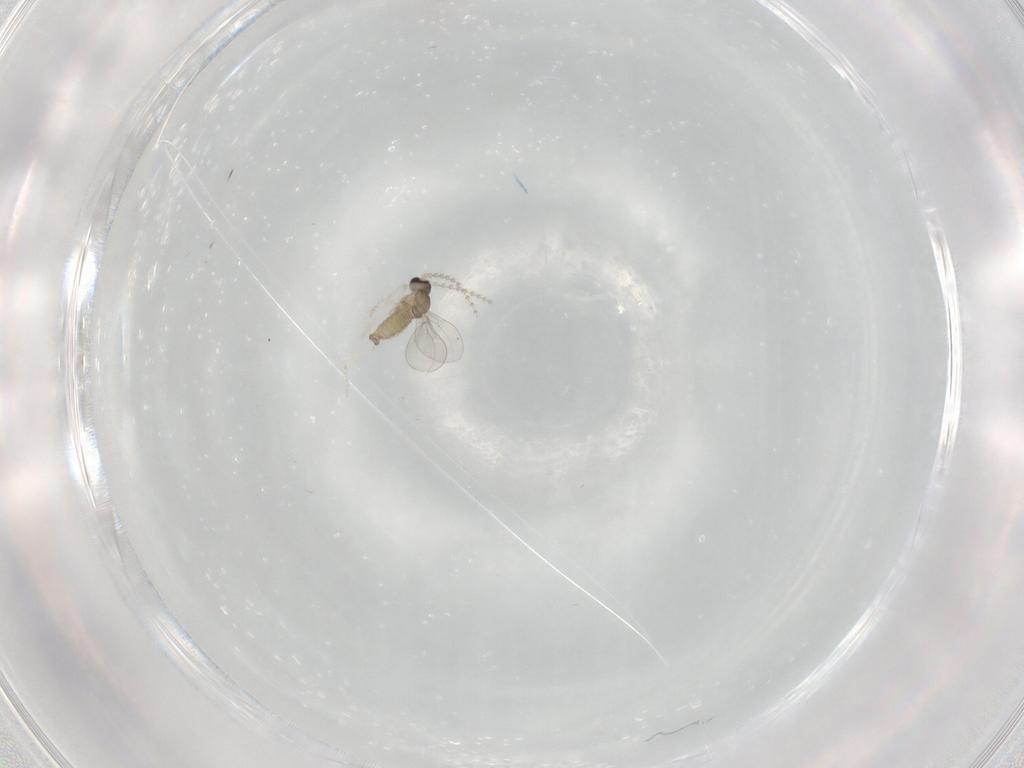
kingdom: Animalia
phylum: Arthropoda
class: Insecta
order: Diptera
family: Cecidomyiidae
